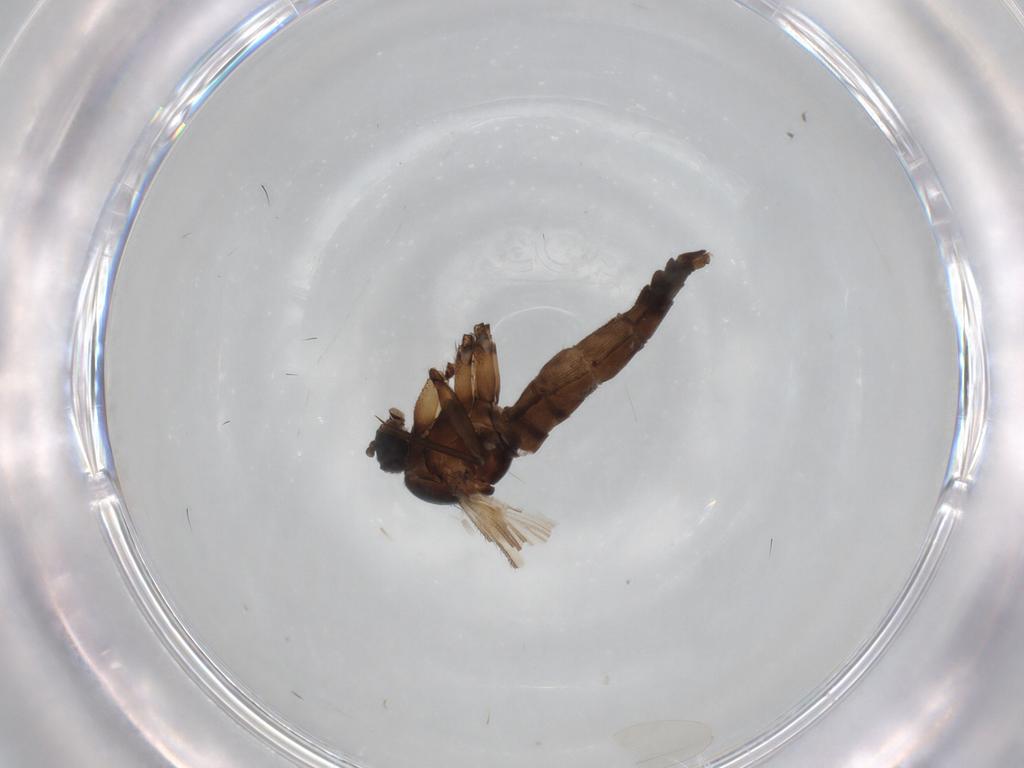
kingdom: Animalia
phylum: Arthropoda
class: Insecta
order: Diptera
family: Sciaridae
